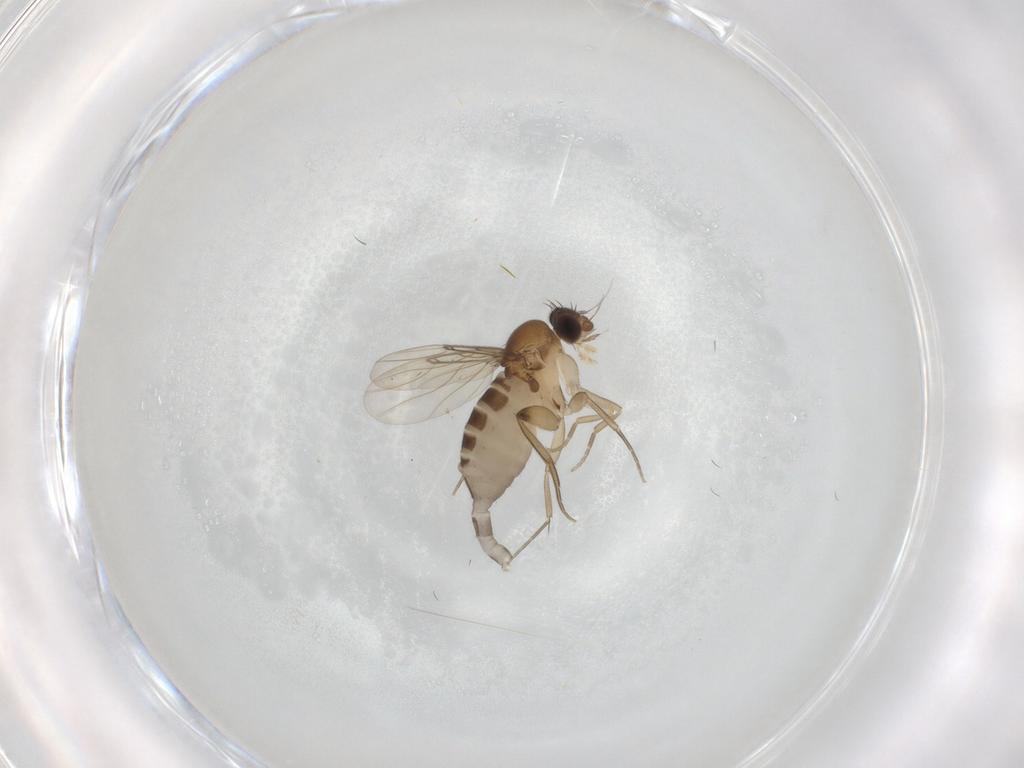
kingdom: Animalia
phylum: Arthropoda
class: Insecta
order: Diptera
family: Phoridae
